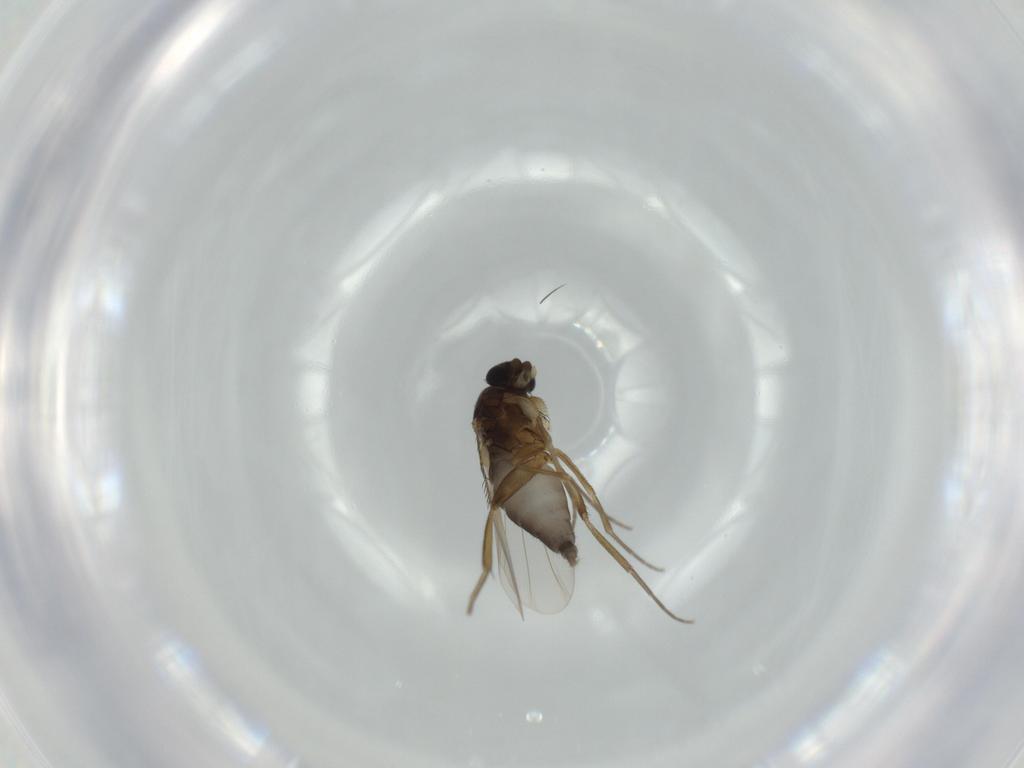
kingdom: Animalia
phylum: Arthropoda
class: Insecta
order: Diptera
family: Phoridae
